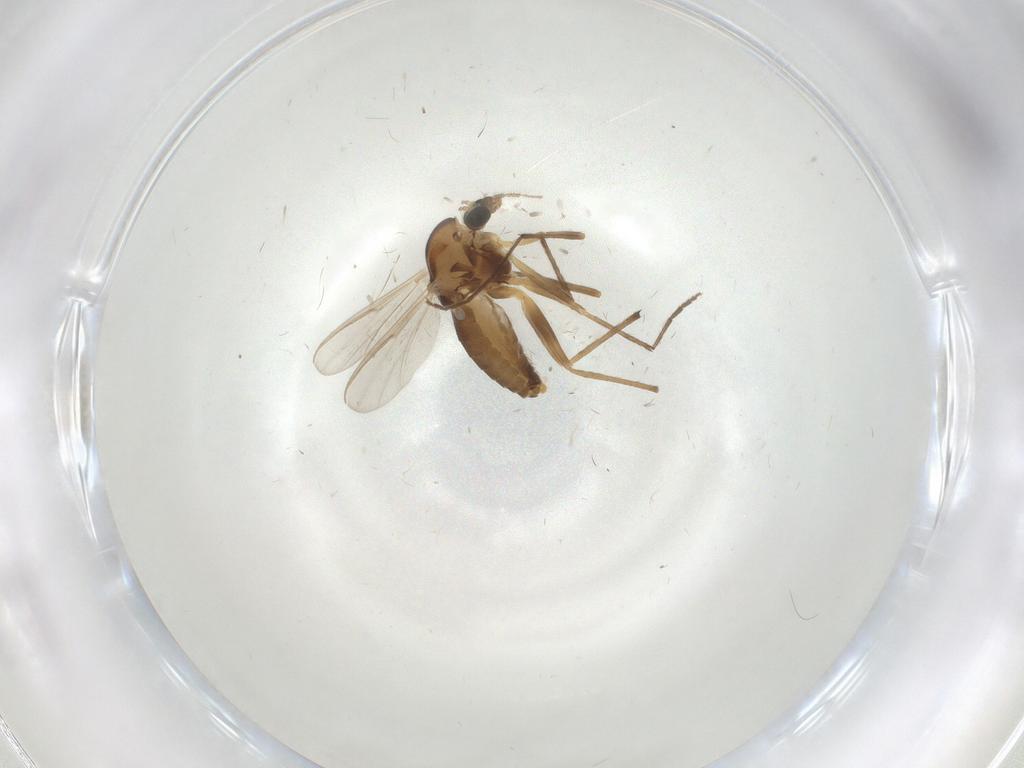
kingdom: Animalia
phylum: Arthropoda
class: Insecta
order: Diptera
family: Chironomidae
